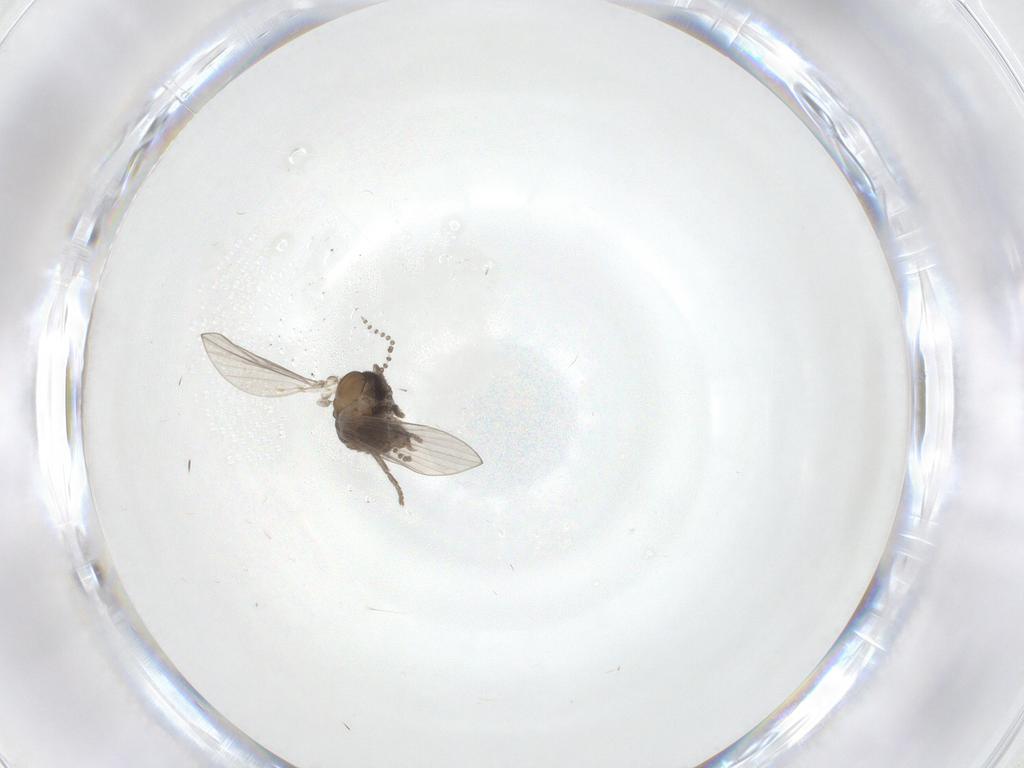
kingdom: Animalia
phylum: Arthropoda
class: Insecta
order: Diptera
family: Psychodidae
